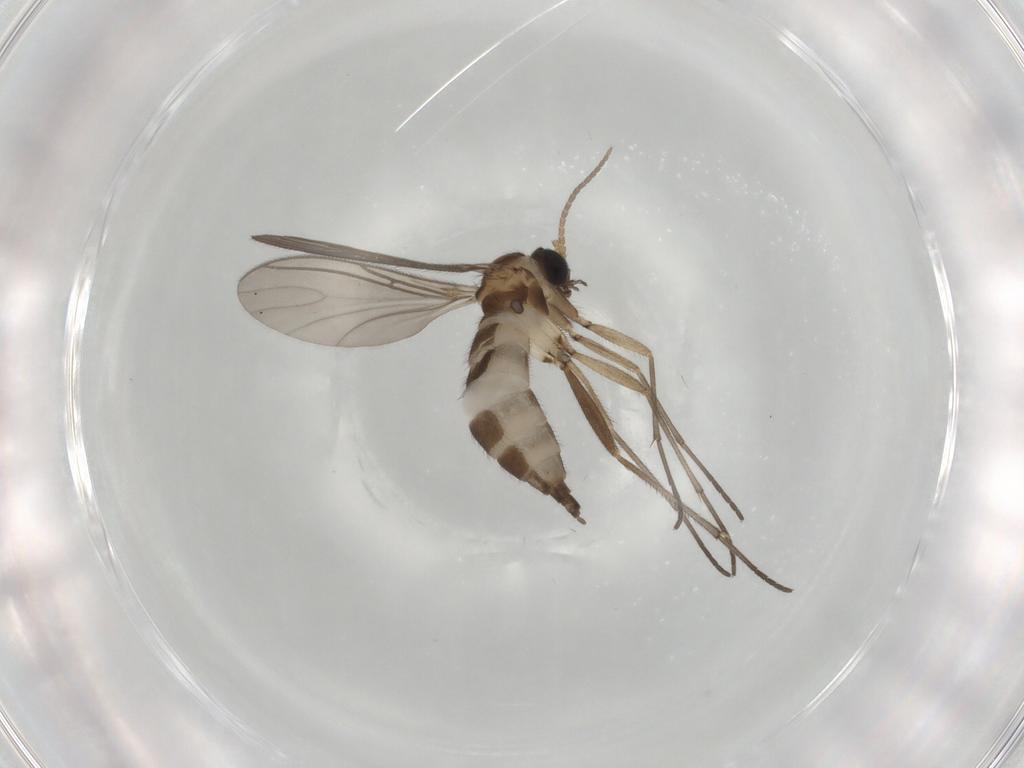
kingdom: Animalia
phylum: Arthropoda
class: Insecta
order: Diptera
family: Sciaridae
